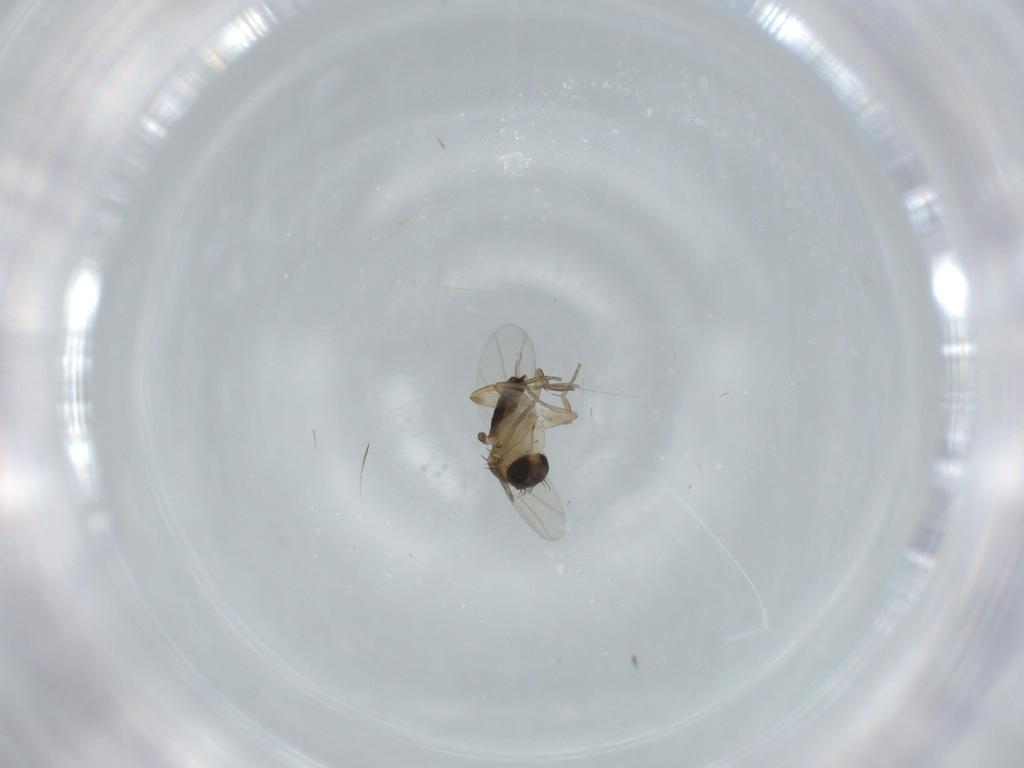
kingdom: Animalia
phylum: Arthropoda
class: Insecta
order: Diptera
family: Phoridae
